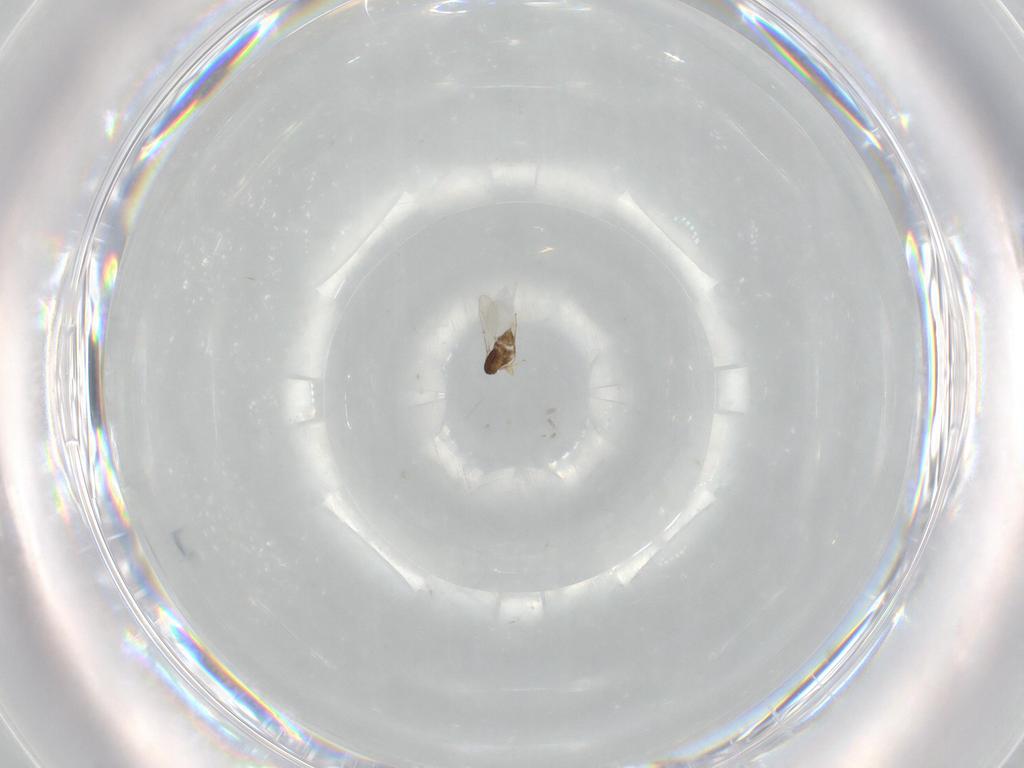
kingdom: Animalia
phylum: Arthropoda
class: Insecta
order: Hymenoptera
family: Encyrtidae
